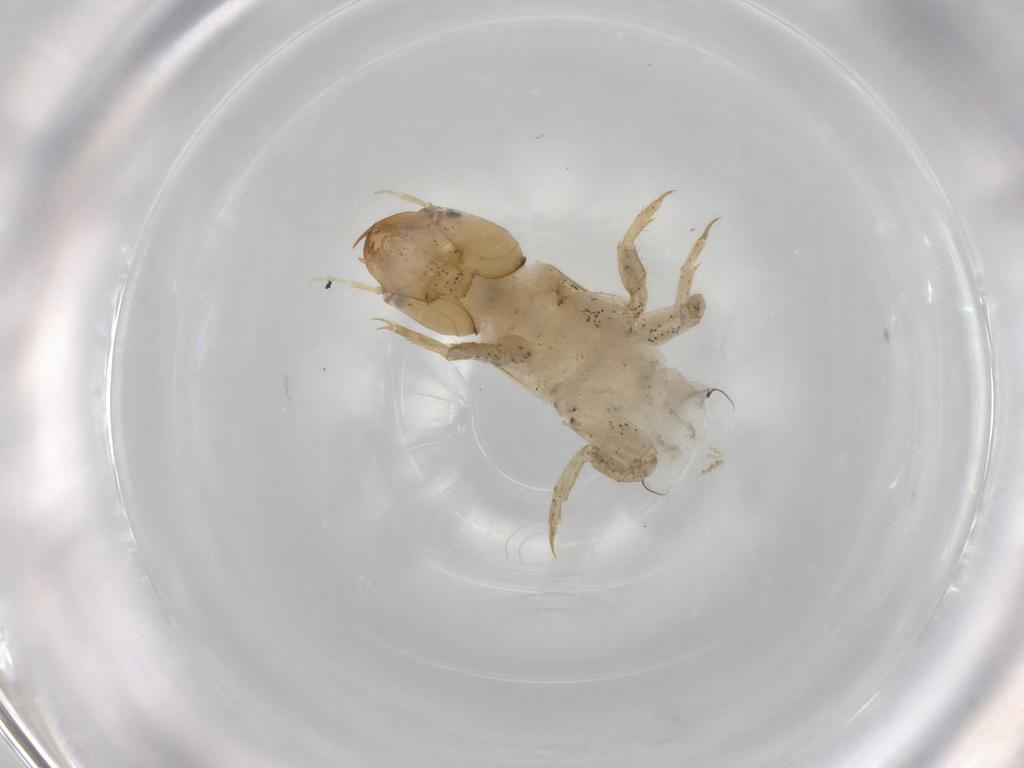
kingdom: Animalia
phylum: Arthropoda
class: Insecta
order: Megaloptera
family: Sialidae
